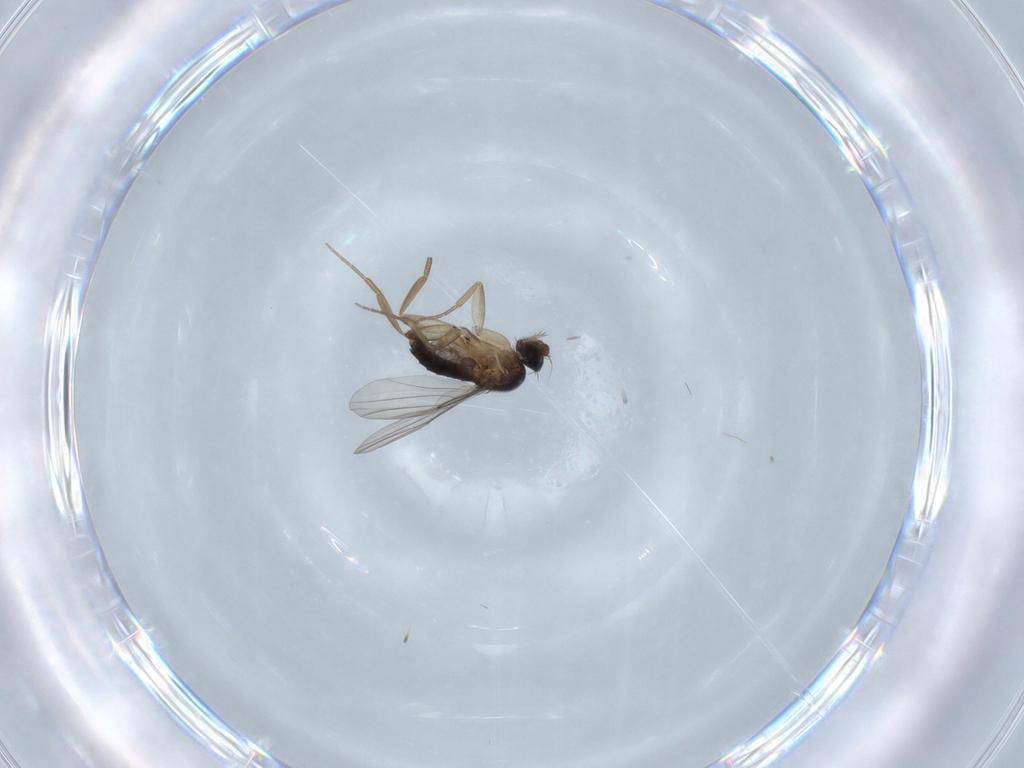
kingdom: Animalia
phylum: Arthropoda
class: Insecta
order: Diptera
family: Phoridae
